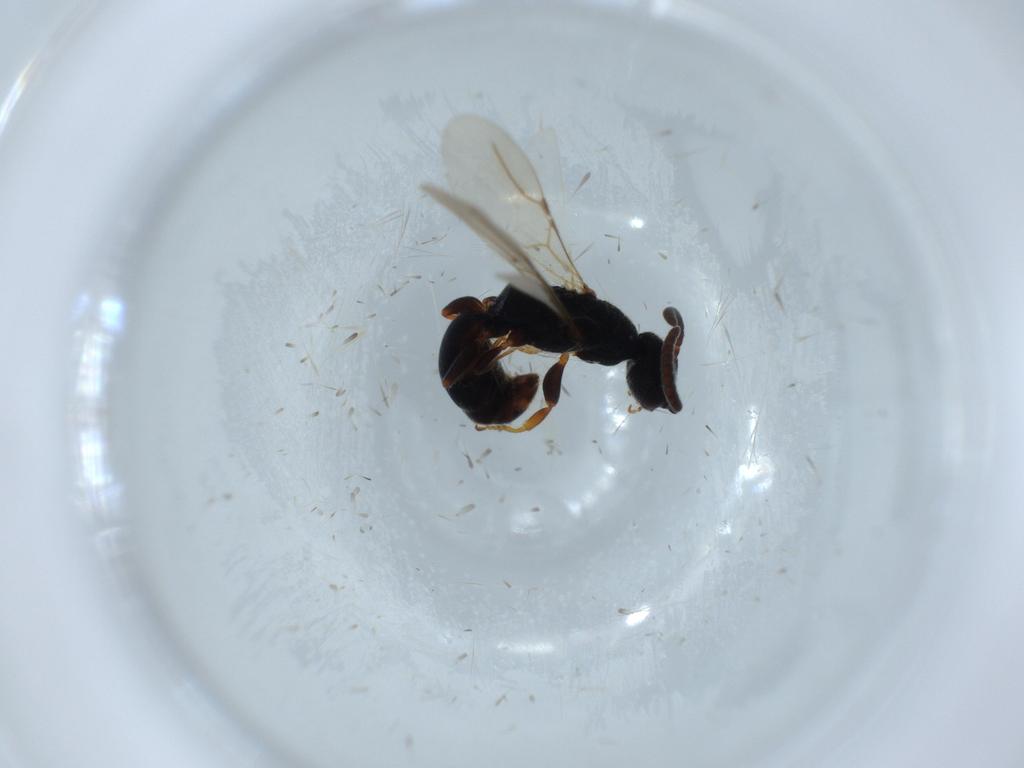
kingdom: Animalia
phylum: Arthropoda
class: Insecta
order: Hymenoptera
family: Bethylidae
